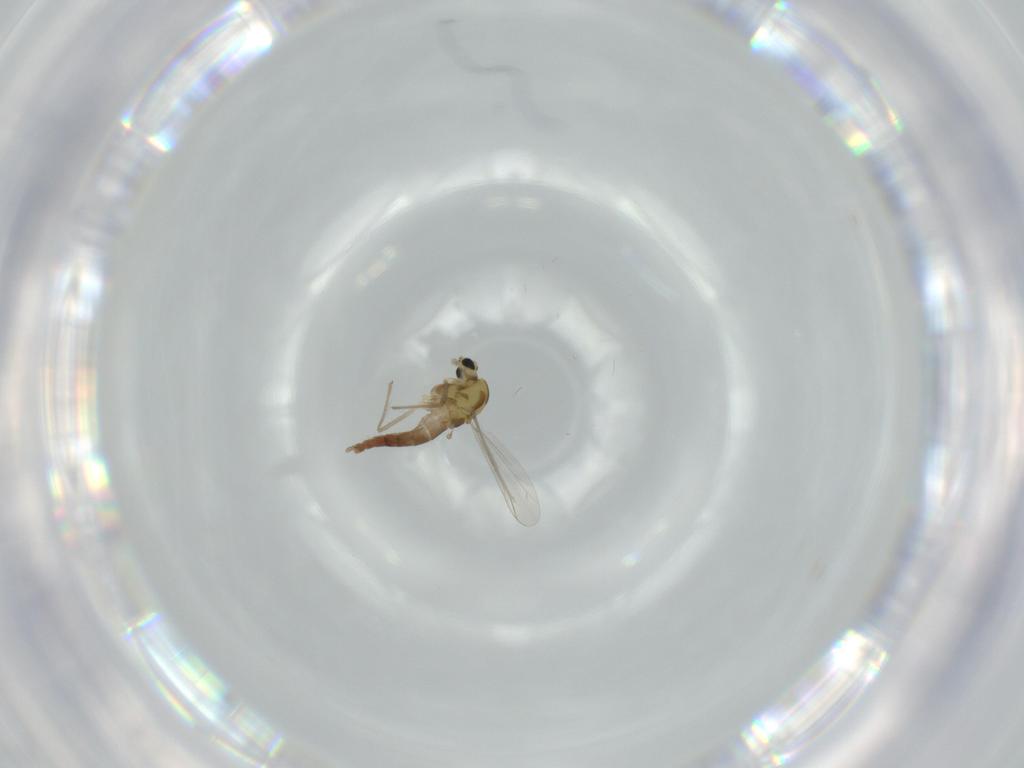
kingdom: Animalia
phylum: Arthropoda
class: Insecta
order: Diptera
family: Chironomidae
